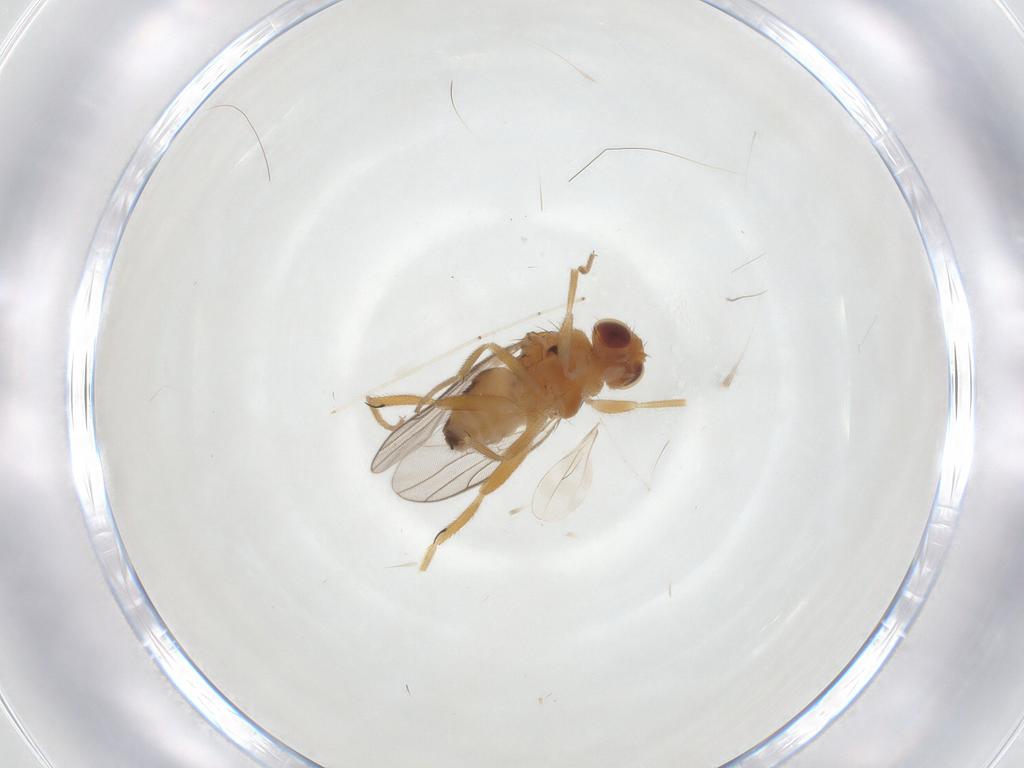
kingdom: Animalia
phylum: Arthropoda
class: Insecta
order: Diptera
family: Chloropidae
